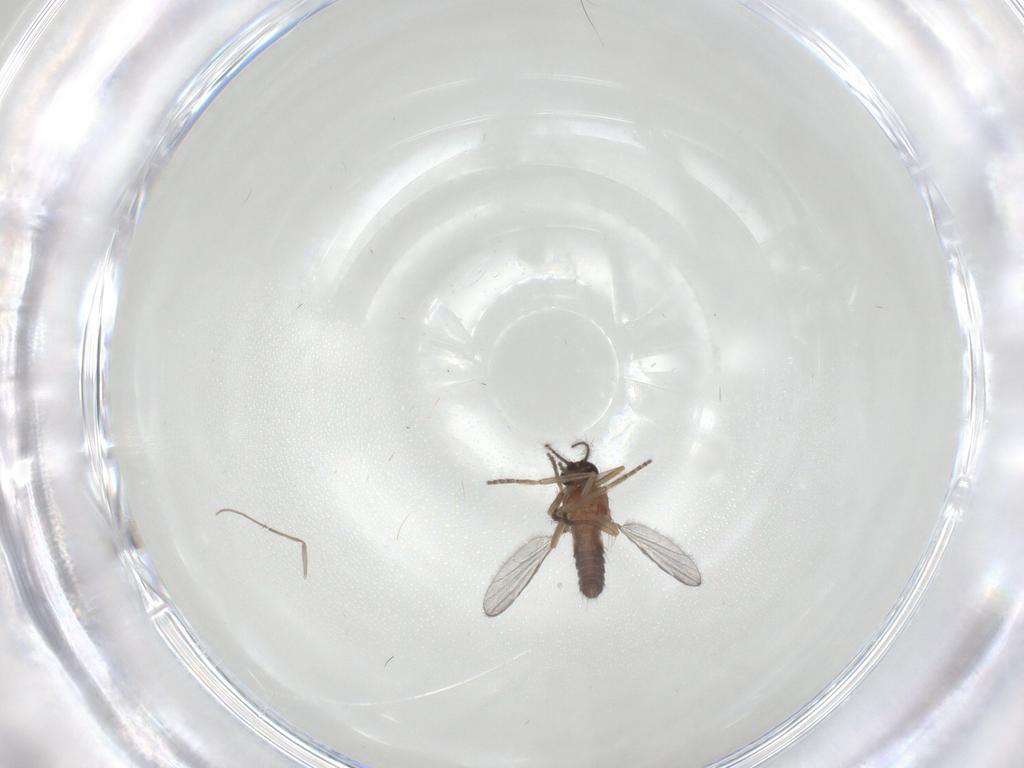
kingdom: Animalia
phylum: Arthropoda
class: Insecta
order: Diptera
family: Ceratopogonidae
